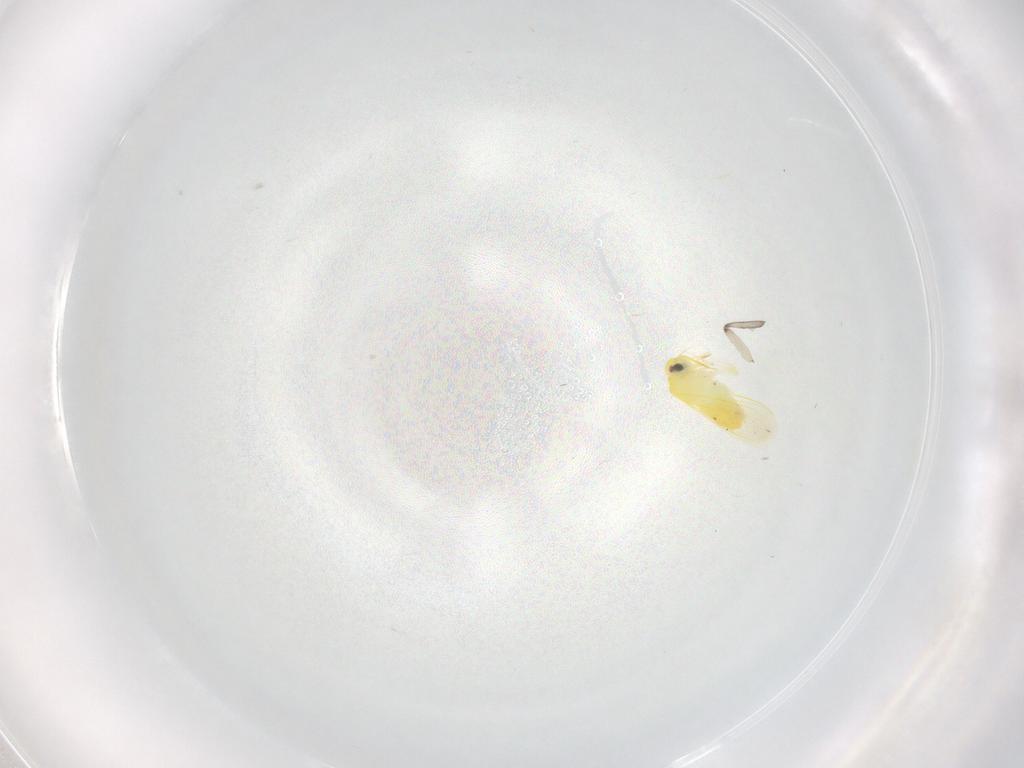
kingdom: Animalia
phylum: Arthropoda
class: Insecta
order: Hemiptera
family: Aleyrodidae
